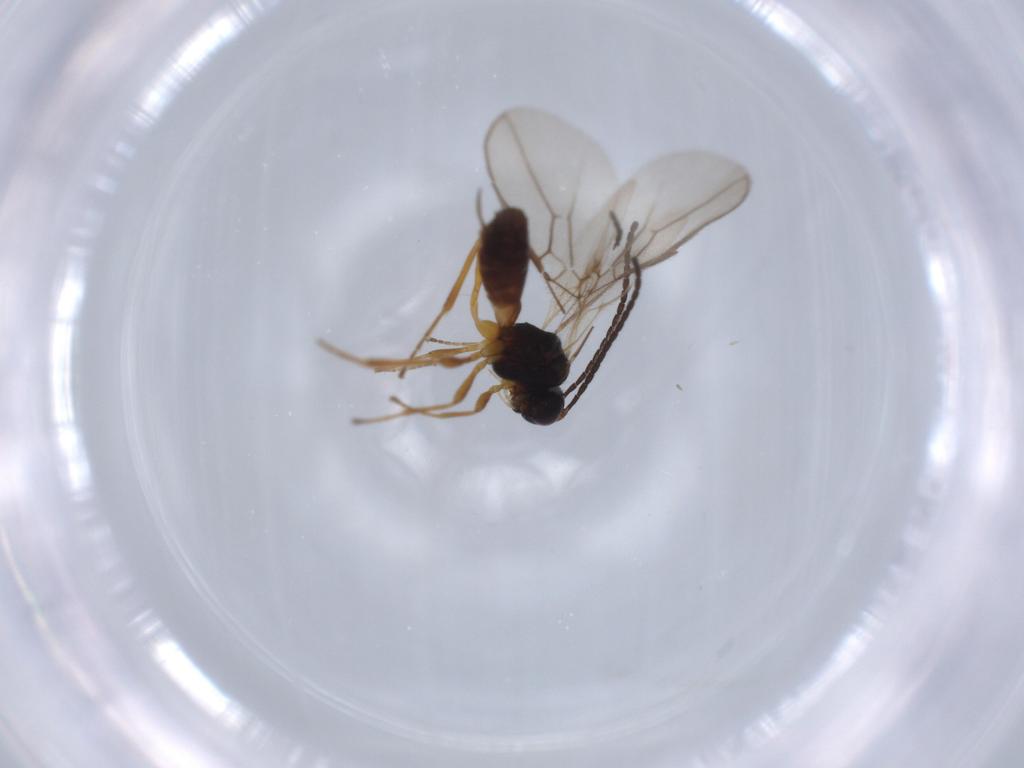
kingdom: Animalia
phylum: Arthropoda
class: Insecta
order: Hymenoptera
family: Braconidae
